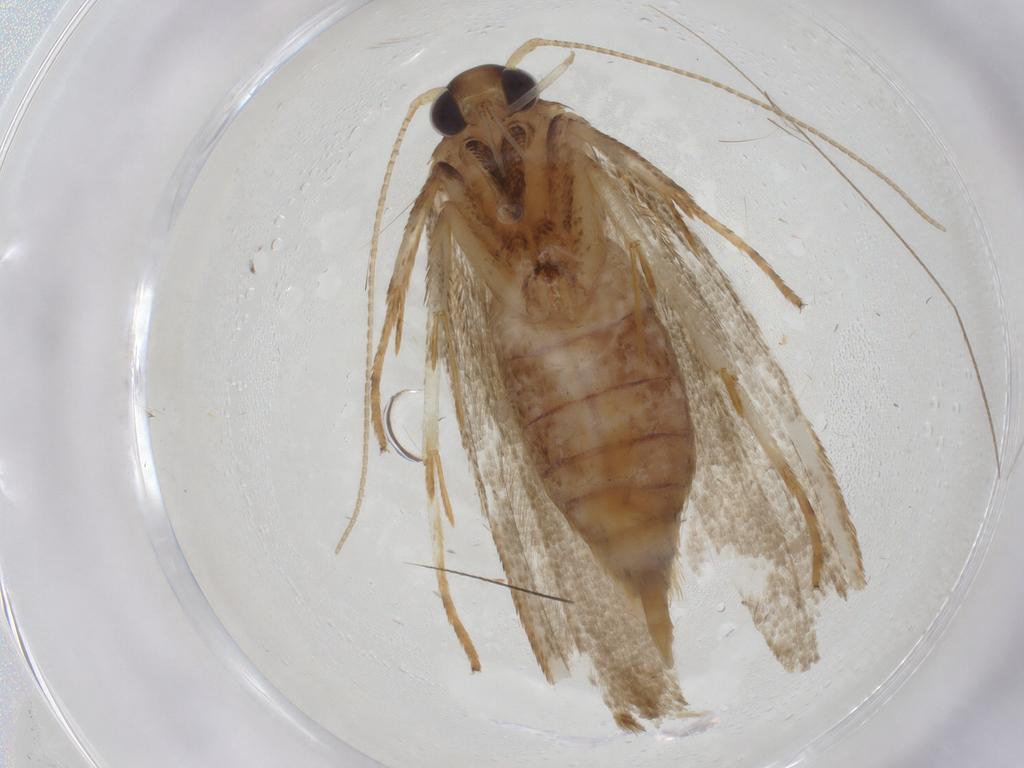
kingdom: Animalia
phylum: Arthropoda
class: Insecta
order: Lepidoptera
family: Blastobasidae
